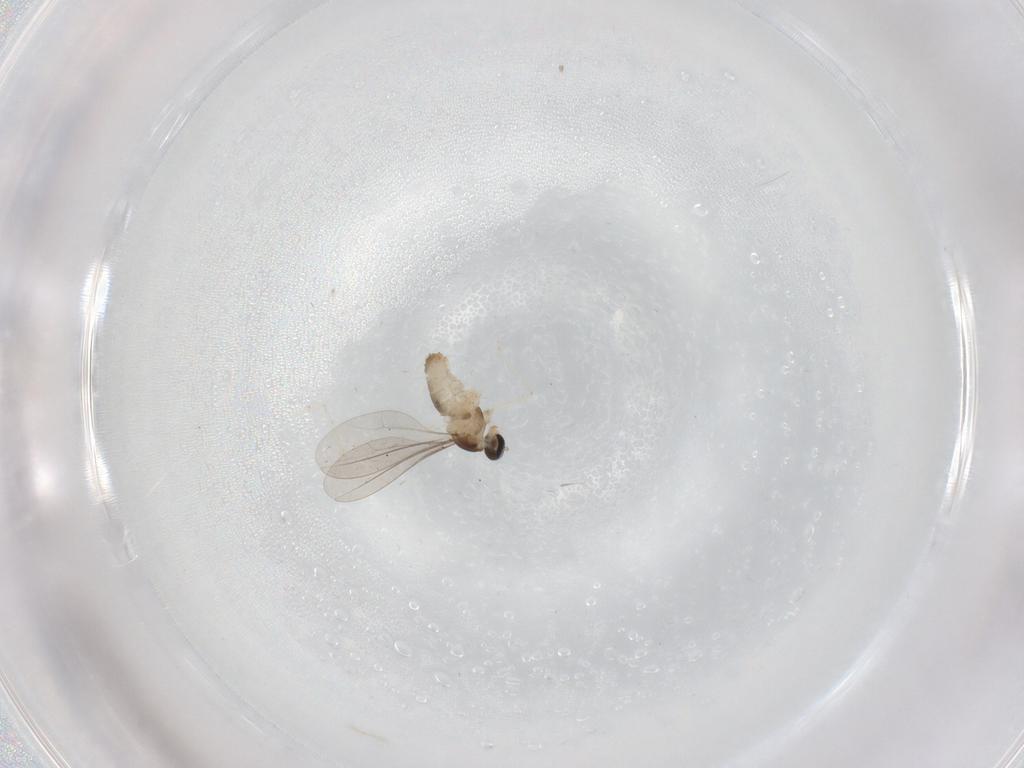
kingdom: Animalia
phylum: Arthropoda
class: Insecta
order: Diptera
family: Cecidomyiidae
